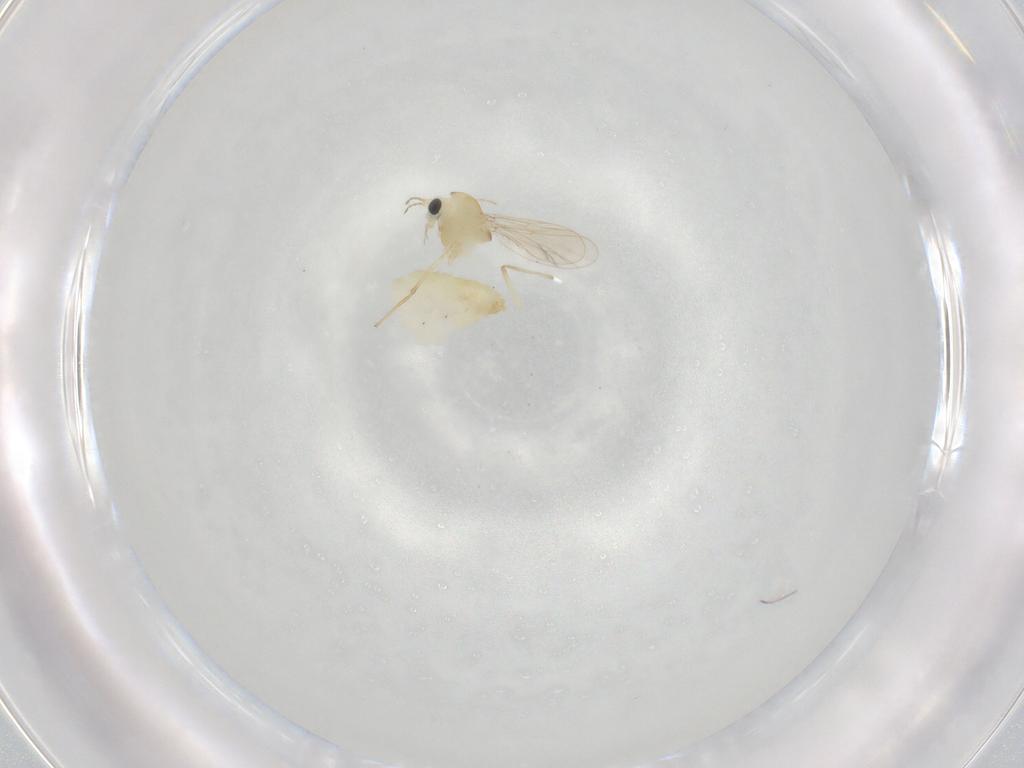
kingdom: Animalia
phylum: Arthropoda
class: Insecta
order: Diptera
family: Chironomidae
